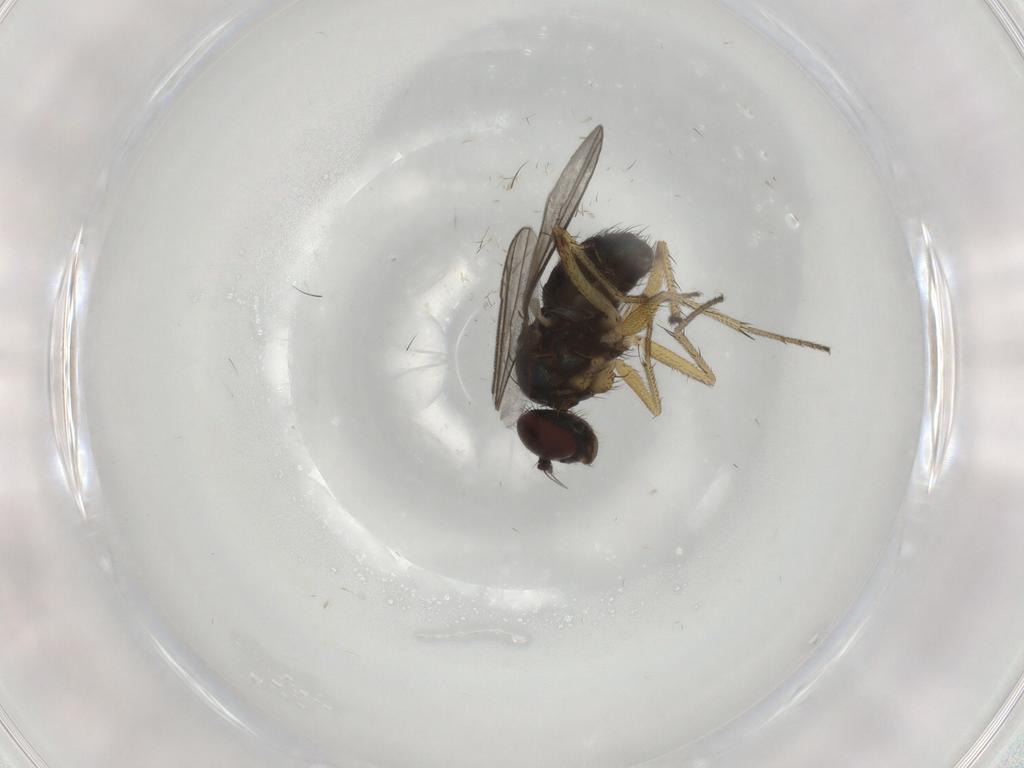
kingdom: Animalia
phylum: Arthropoda
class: Insecta
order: Diptera
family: Dolichopodidae
